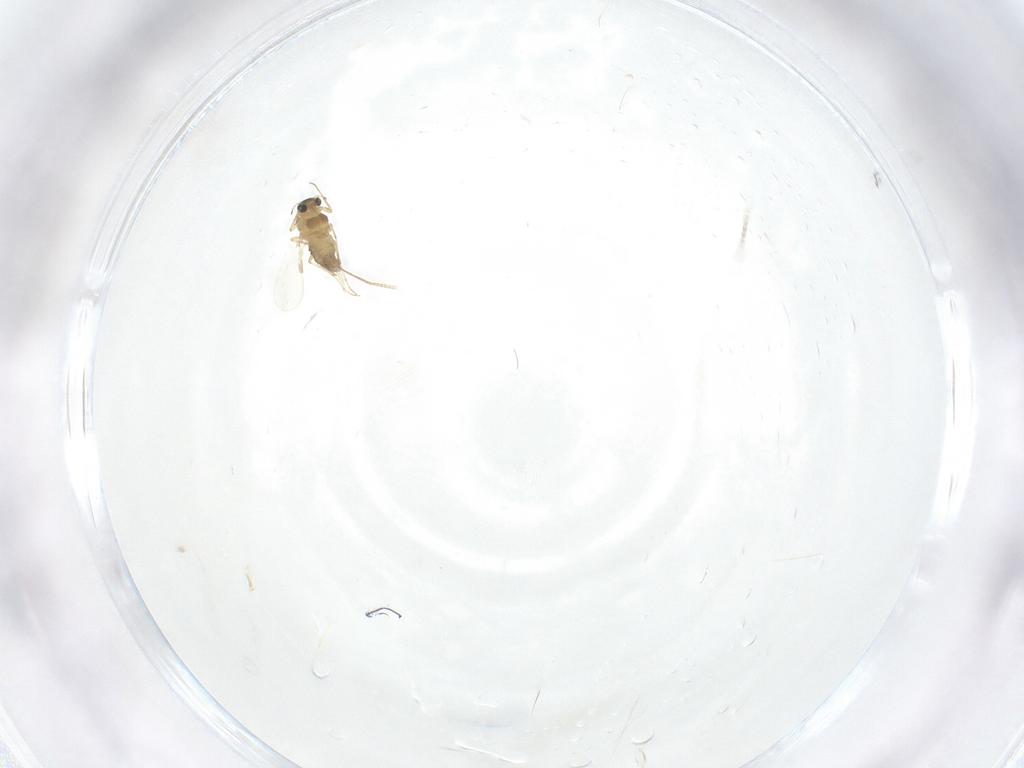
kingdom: Animalia
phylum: Arthropoda
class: Insecta
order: Diptera
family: Chironomidae
